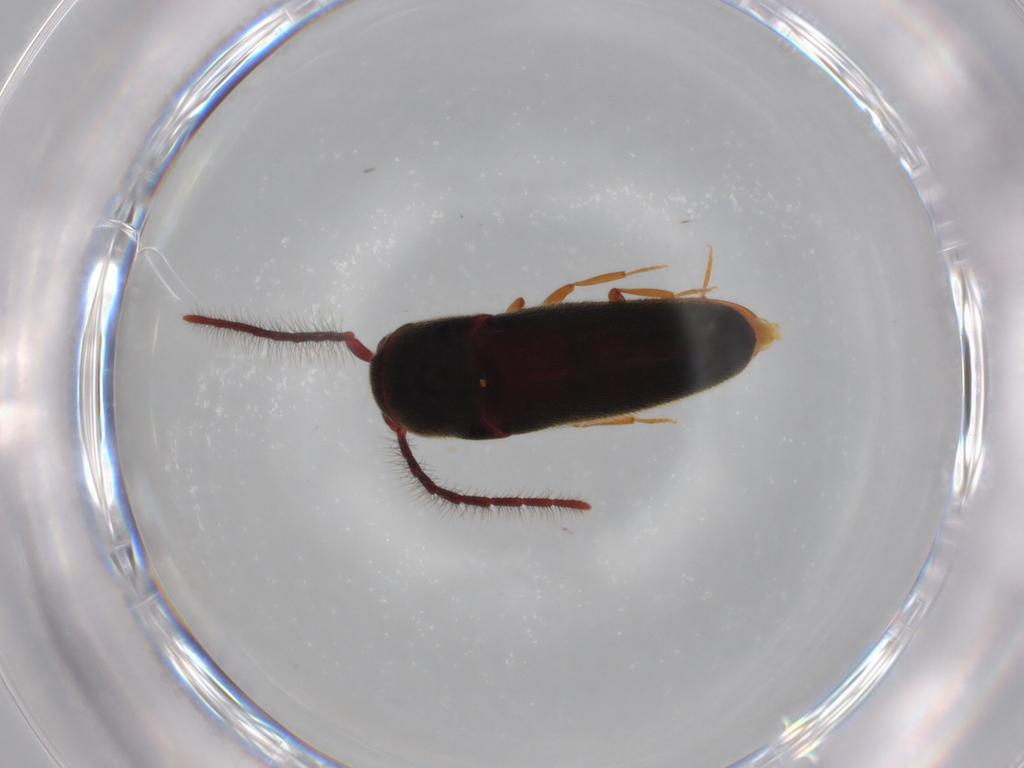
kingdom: Animalia
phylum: Arthropoda
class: Insecta
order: Coleoptera
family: Eucnemidae
